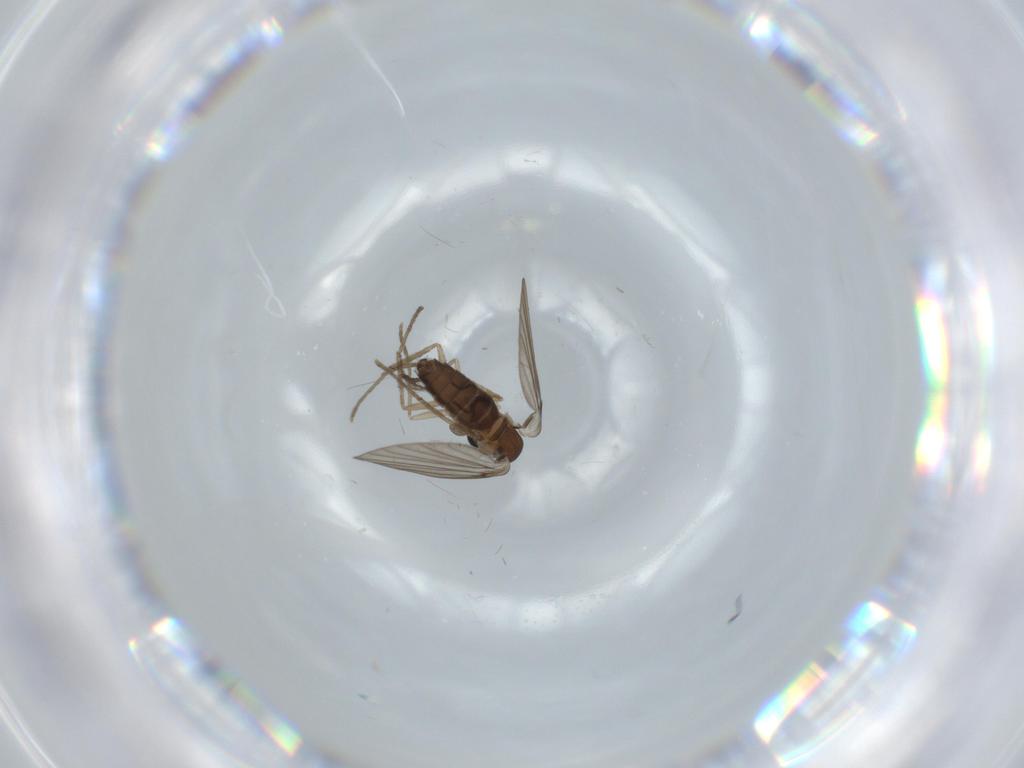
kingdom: Animalia
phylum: Arthropoda
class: Insecta
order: Diptera
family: Psychodidae
